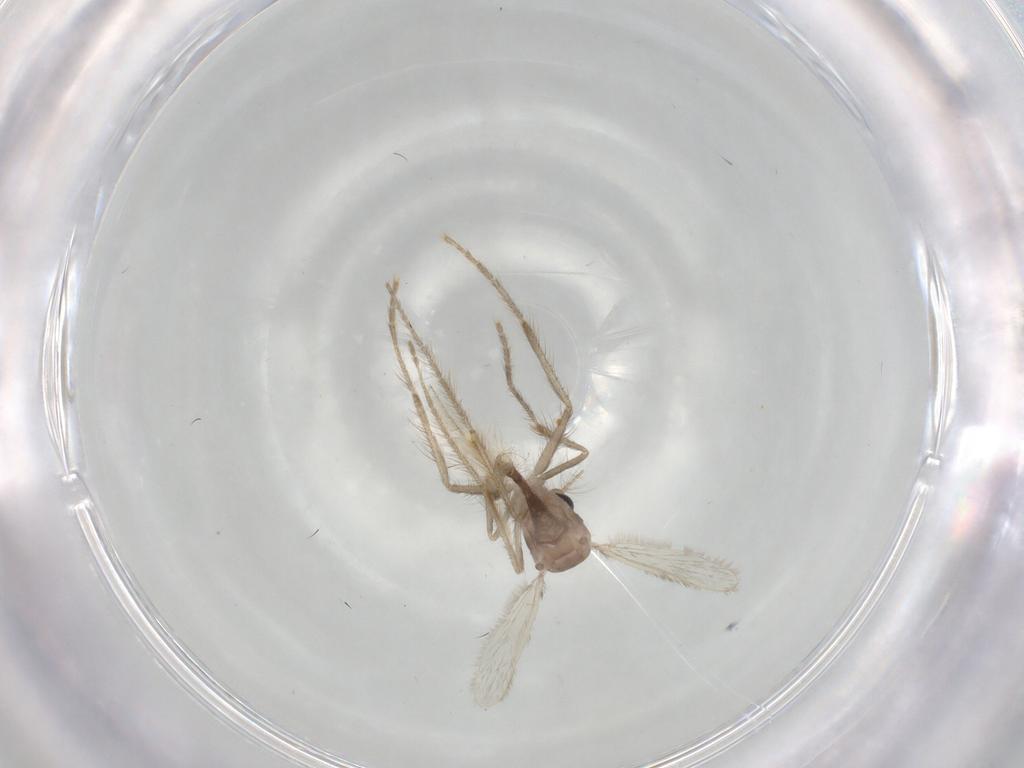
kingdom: Animalia
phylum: Arthropoda
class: Insecta
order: Diptera
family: Corethrellidae
